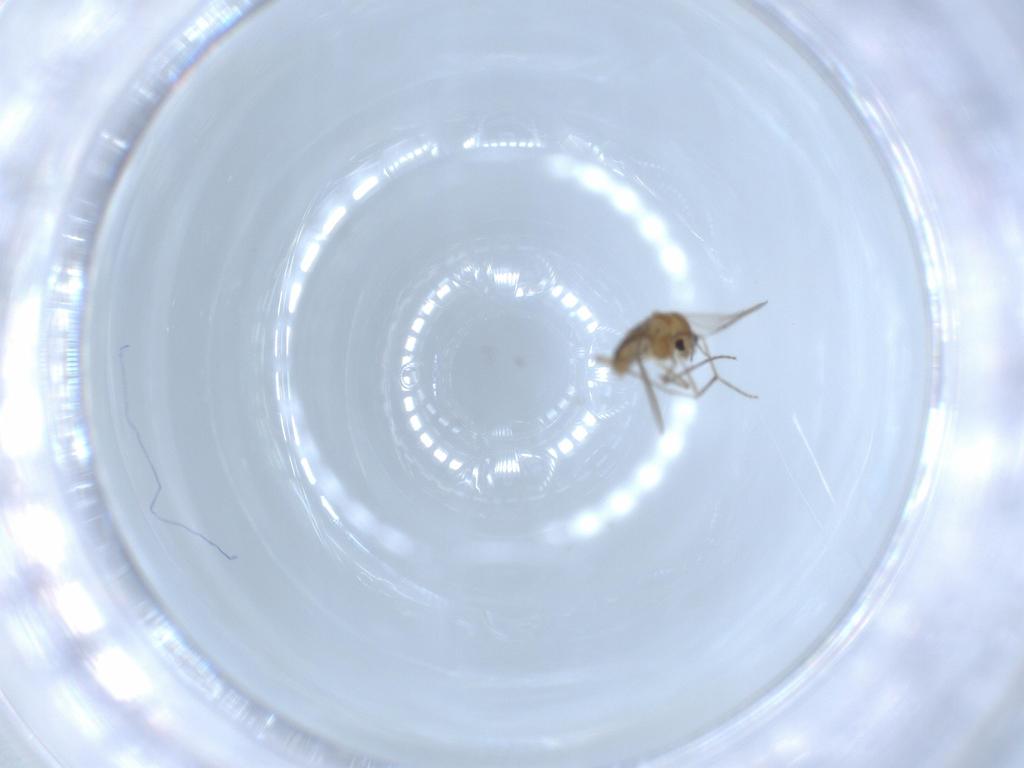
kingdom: Animalia
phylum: Arthropoda
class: Insecta
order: Diptera
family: Chironomidae
